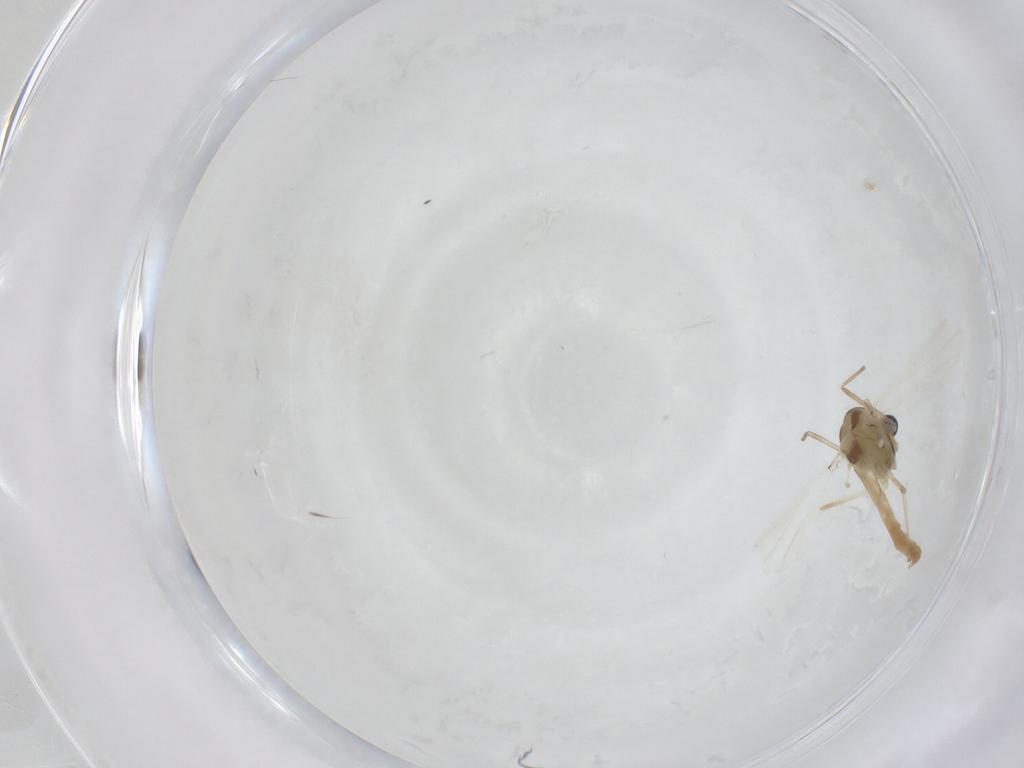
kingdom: Animalia
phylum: Arthropoda
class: Insecta
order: Diptera
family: Chironomidae
